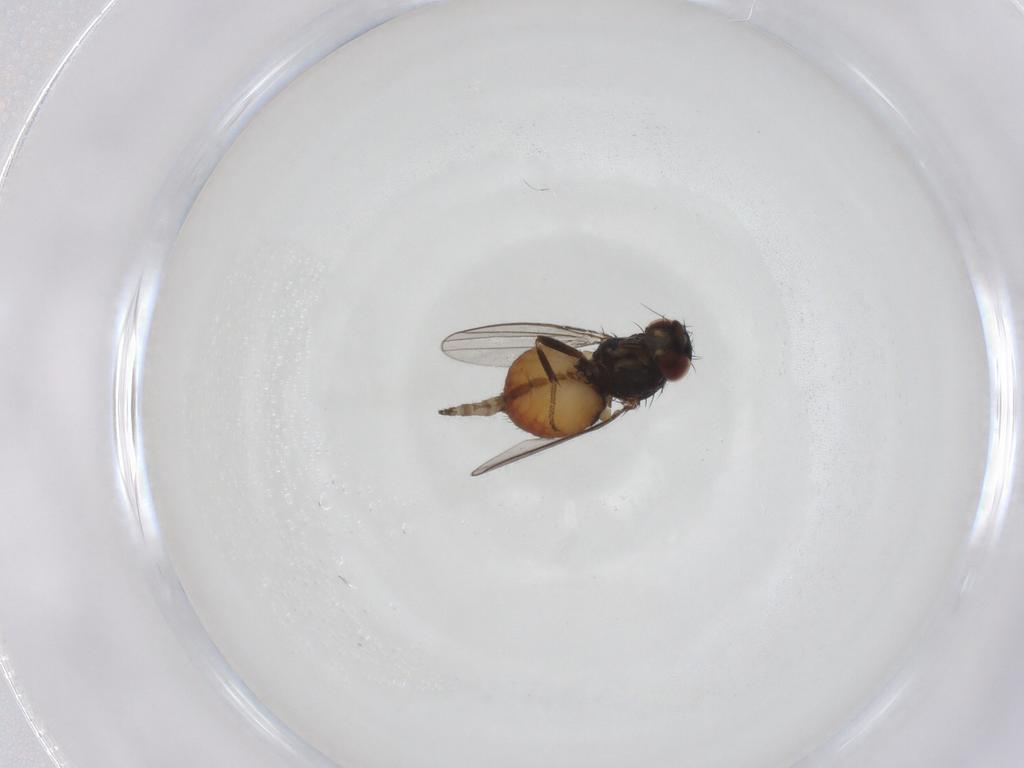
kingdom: Animalia
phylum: Arthropoda
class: Insecta
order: Diptera
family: Milichiidae
